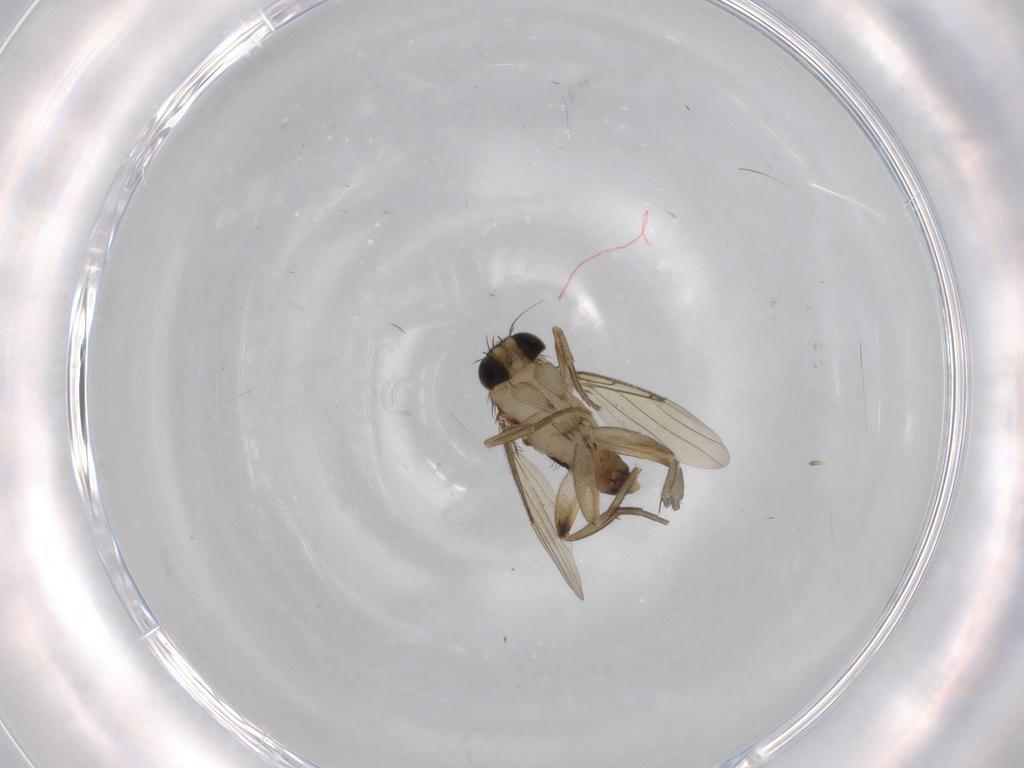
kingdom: Animalia
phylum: Arthropoda
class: Insecta
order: Diptera
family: Phoridae
